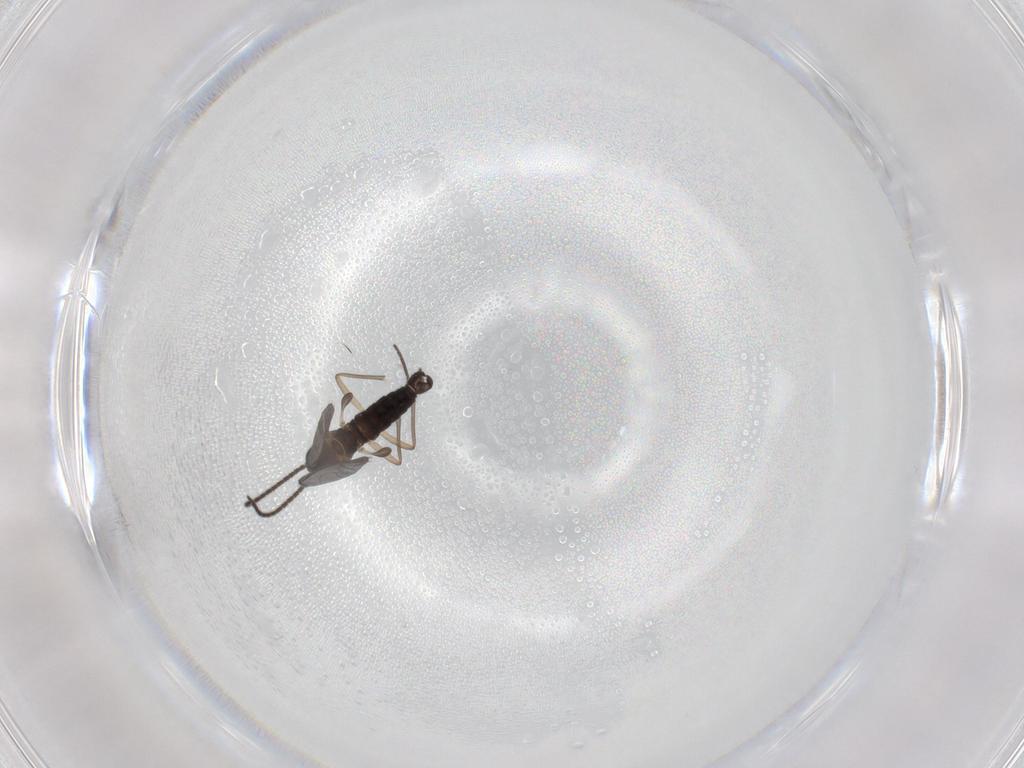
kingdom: Animalia
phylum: Arthropoda
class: Insecta
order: Diptera
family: Sciaridae
